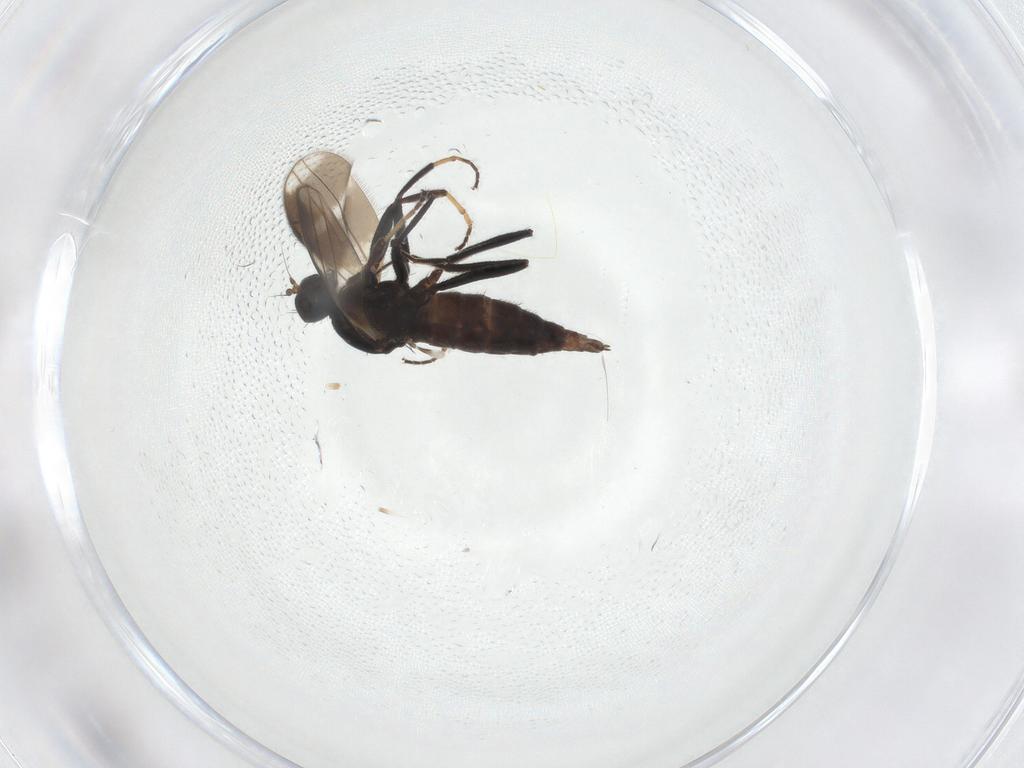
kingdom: Animalia
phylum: Arthropoda
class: Insecta
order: Diptera
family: Hybotidae
